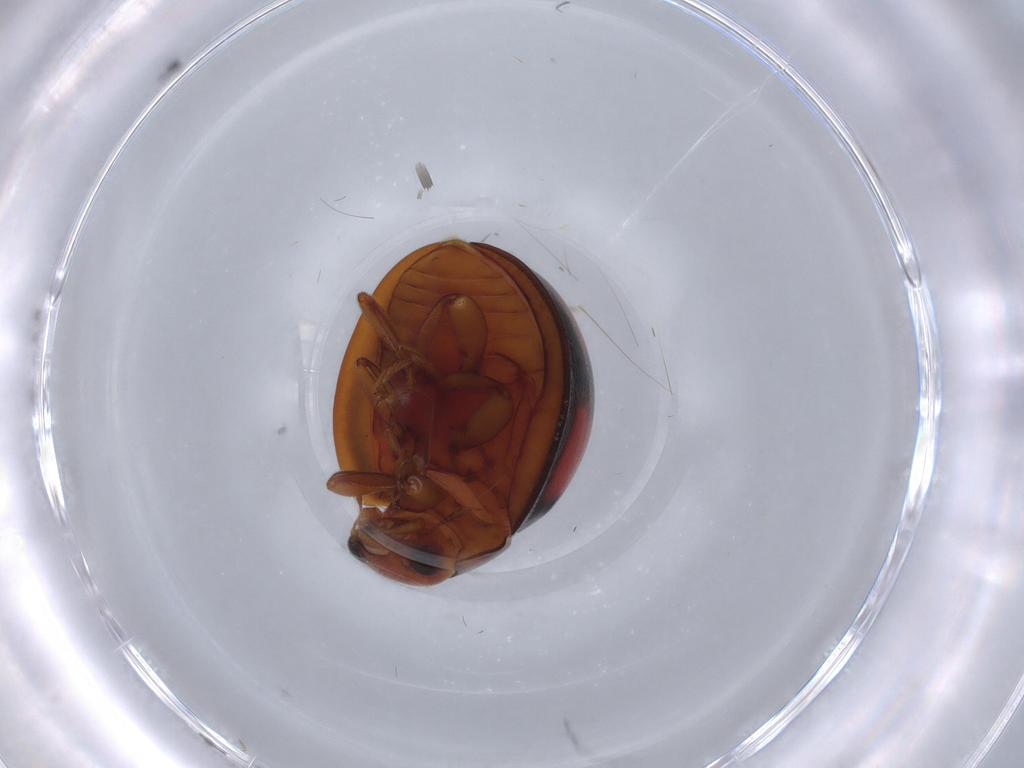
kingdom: Animalia
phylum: Arthropoda
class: Insecta
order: Coleoptera
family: Coccinellidae
